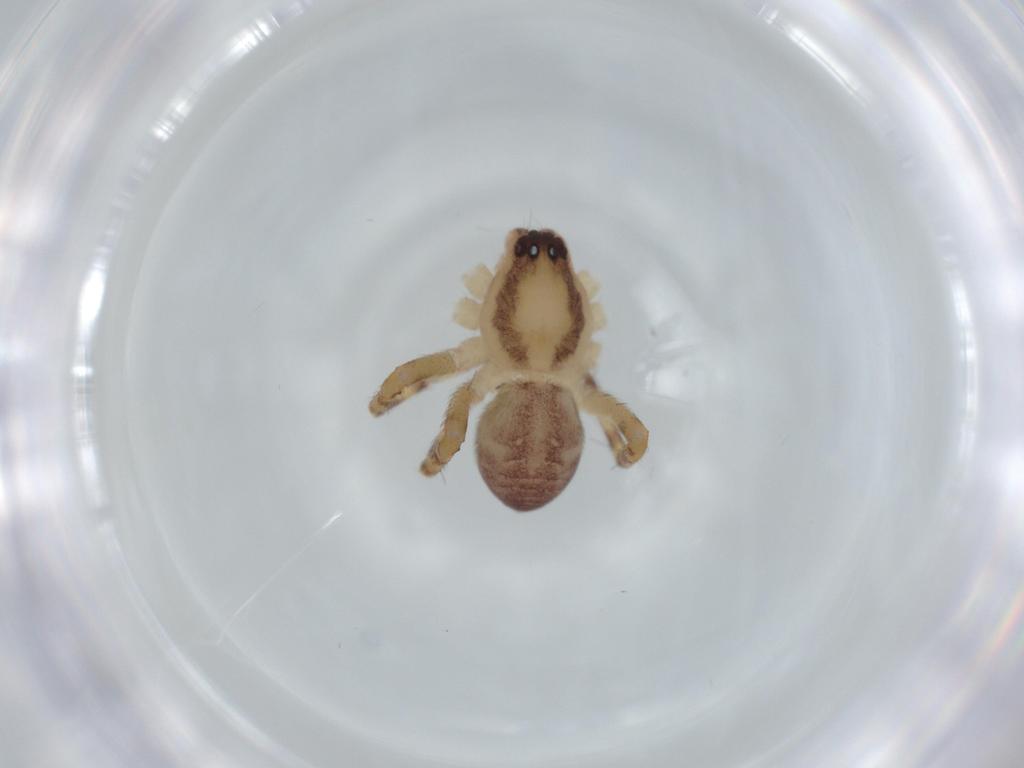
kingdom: Animalia
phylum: Arthropoda
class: Arachnida
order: Araneae
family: Corinnidae
